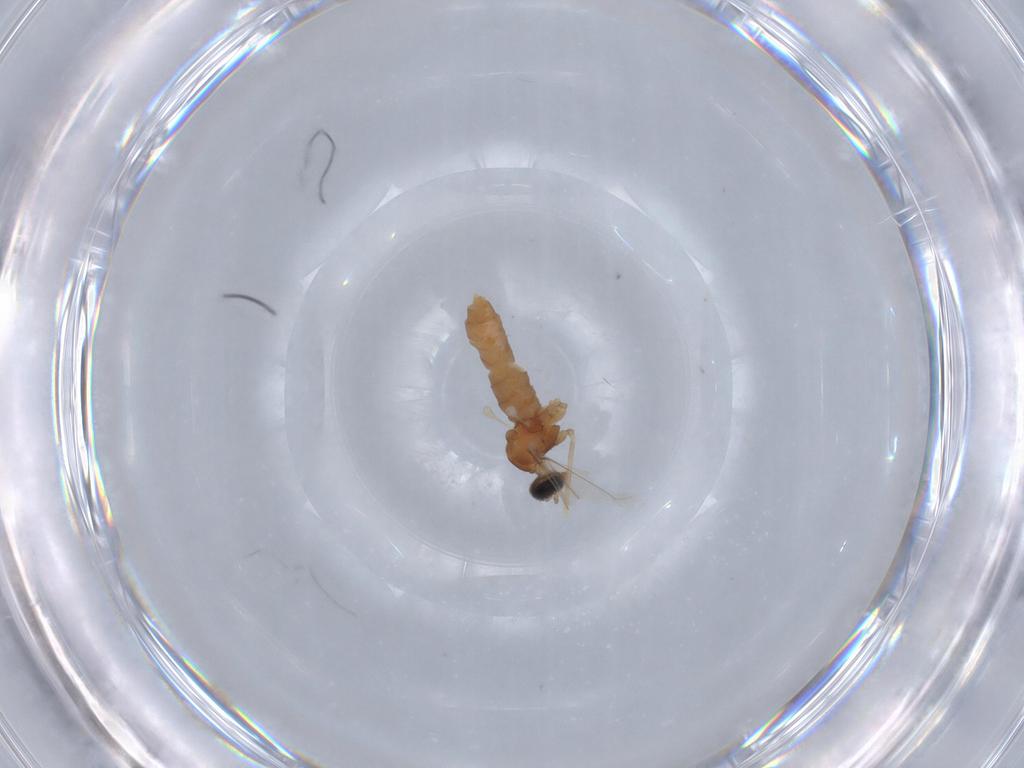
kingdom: Animalia
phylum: Arthropoda
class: Insecta
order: Diptera
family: Cecidomyiidae
